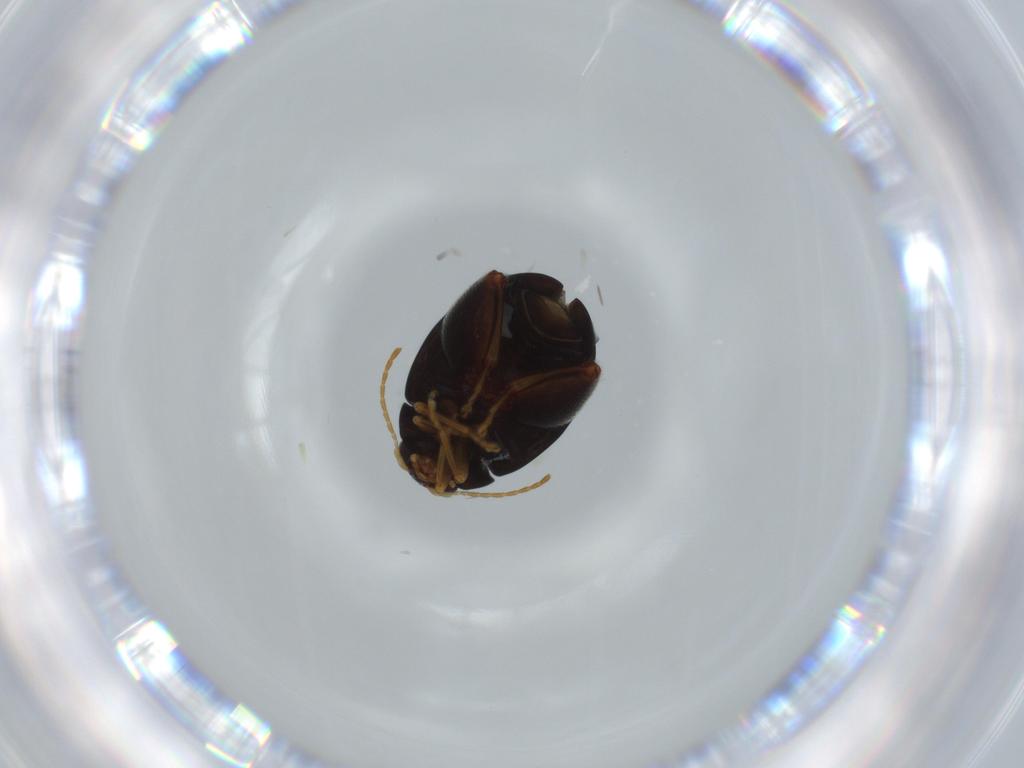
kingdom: Animalia
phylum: Arthropoda
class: Insecta
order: Coleoptera
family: Chrysomelidae
